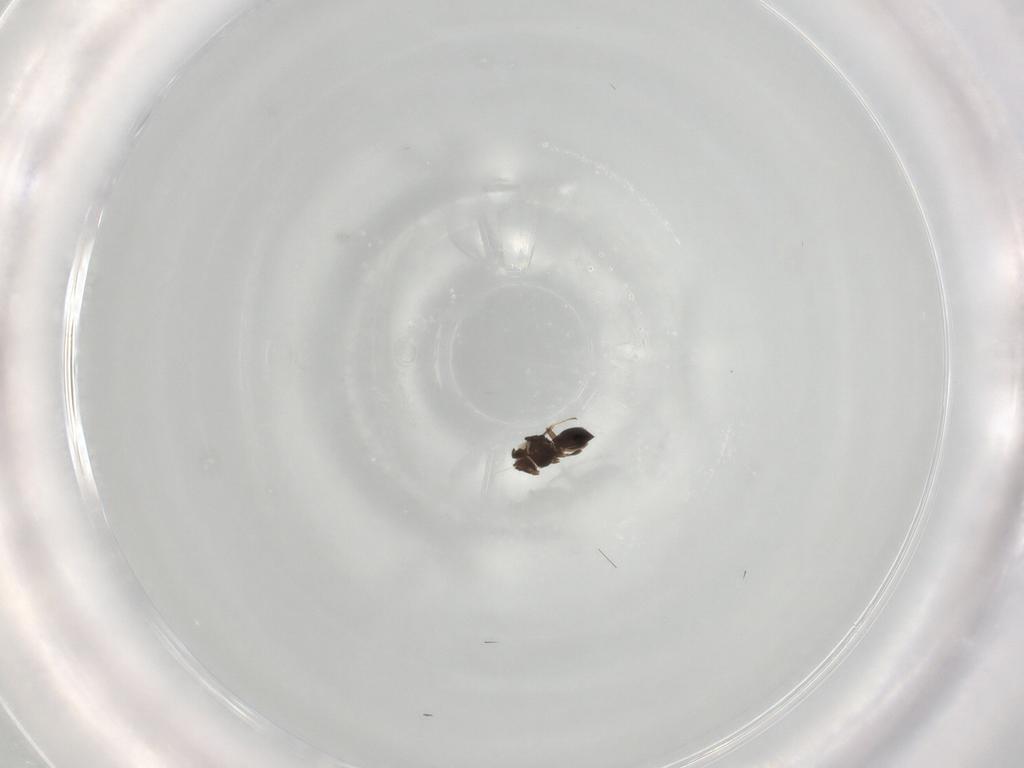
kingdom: Animalia
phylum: Arthropoda
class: Insecta
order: Hymenoptera
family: Scelionidae
